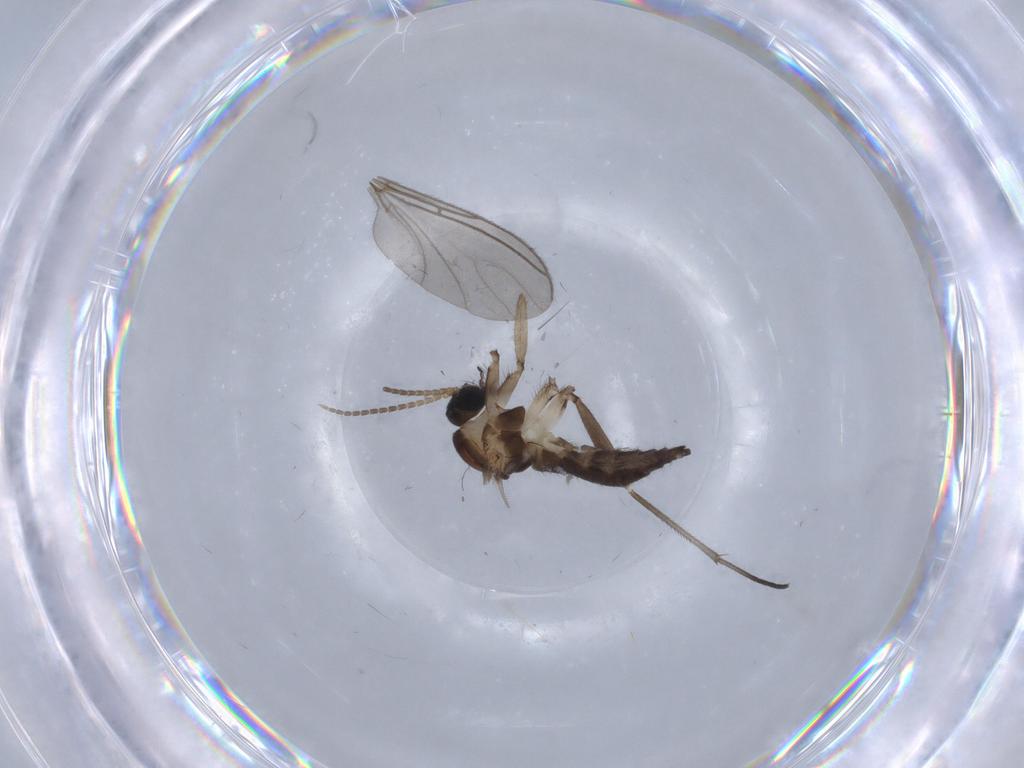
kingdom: Animalia
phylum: Arthropoda
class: Insecta
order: Diptera
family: Sciaridae
